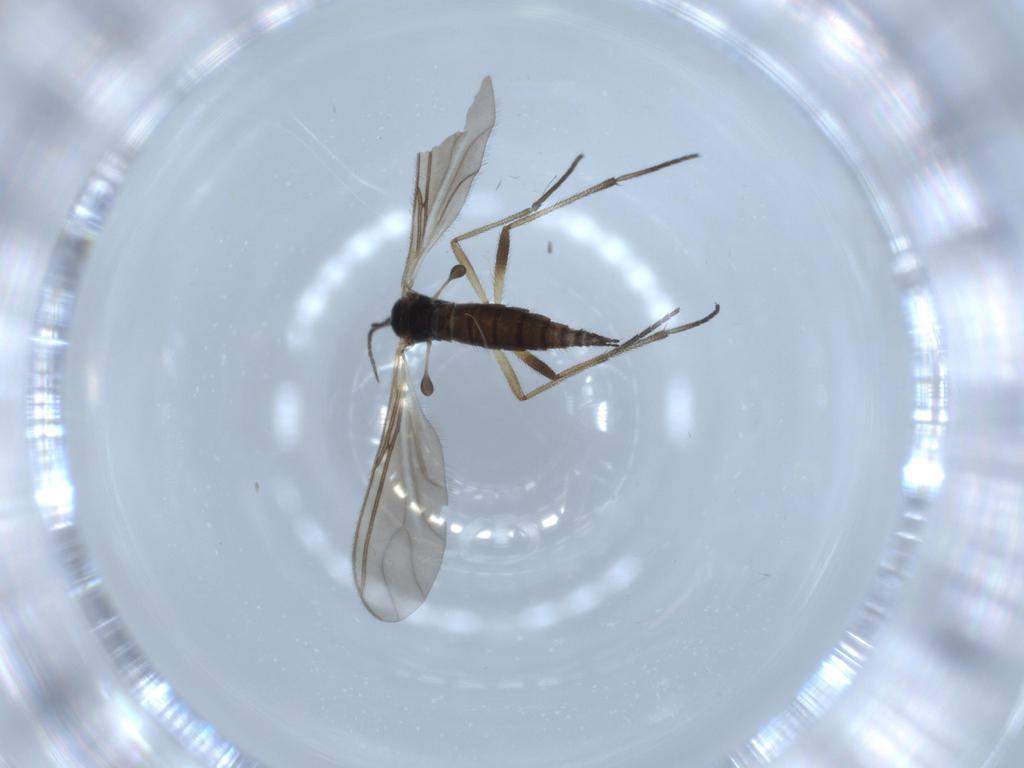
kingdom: Animalia
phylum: Arthropoda
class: Insecta
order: Diptera
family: Sciaridae
